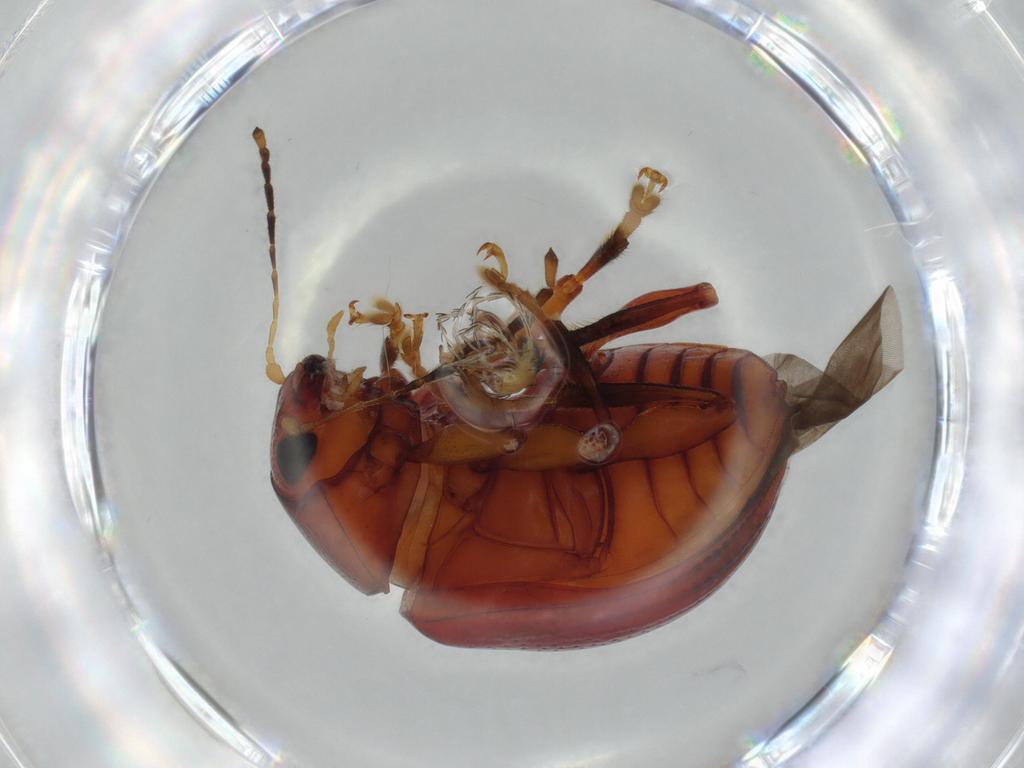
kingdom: Animalia
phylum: Arthropoda
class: Insecta
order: Coleoptera
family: Chrysomelidae
